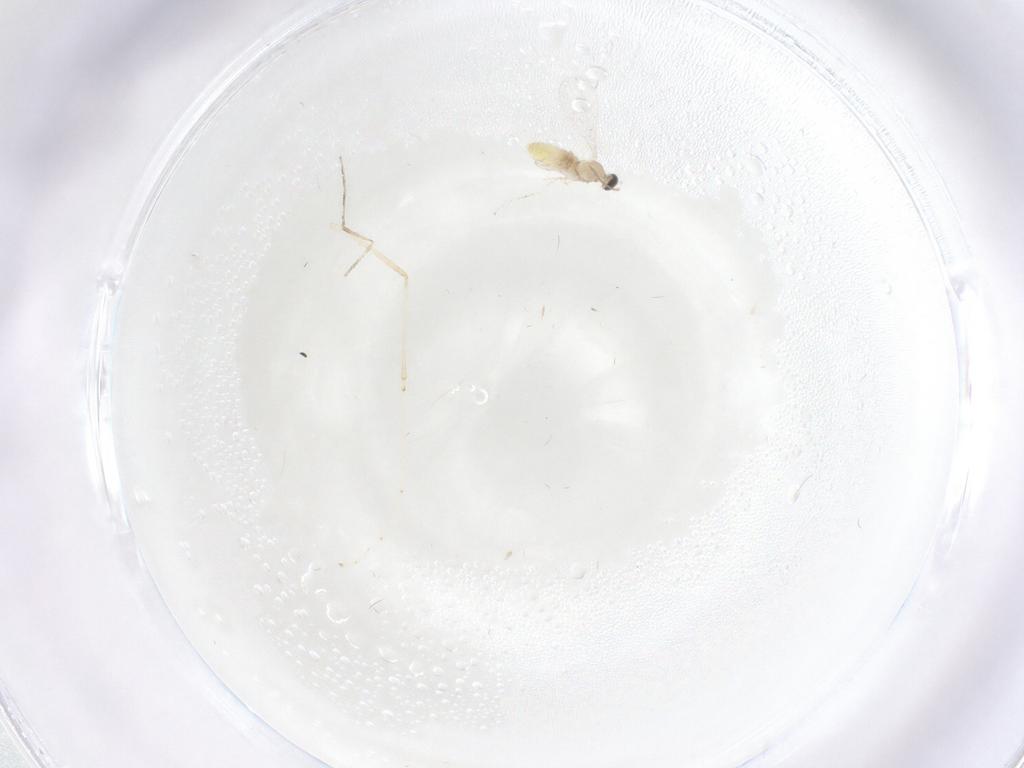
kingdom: Animalia
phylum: Arthropoda
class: Insecta
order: Diptera
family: Cecidomyiidae
